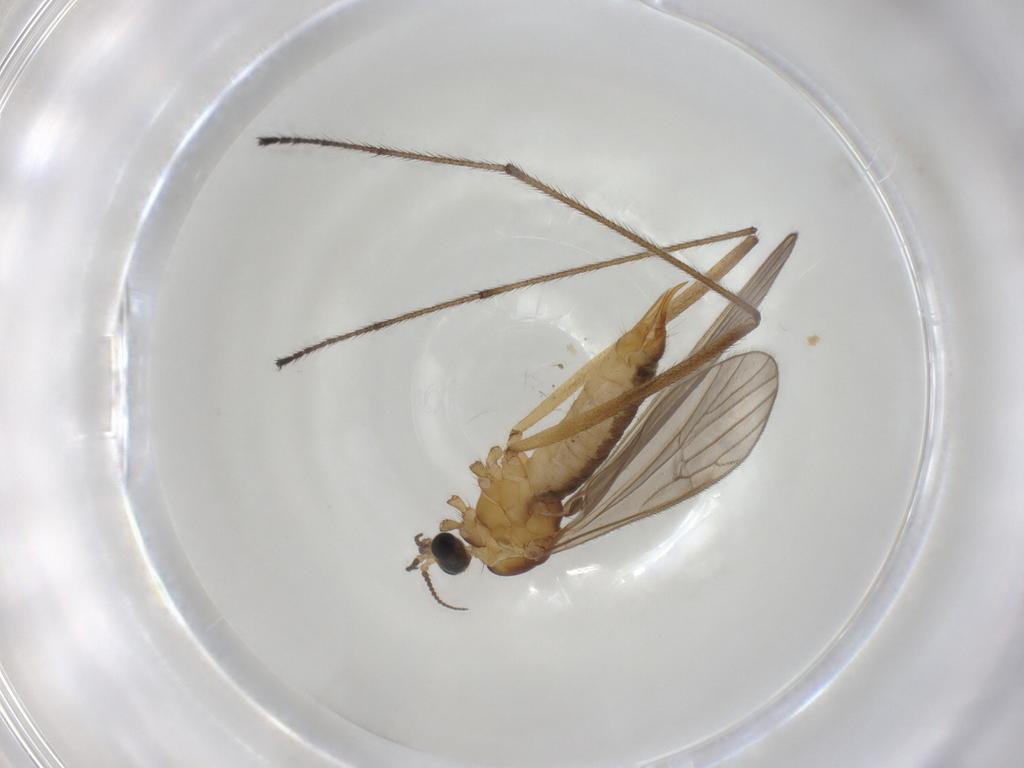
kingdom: Animalia
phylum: Arthropoda
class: Insecta
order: Diptera
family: Limoniidae
